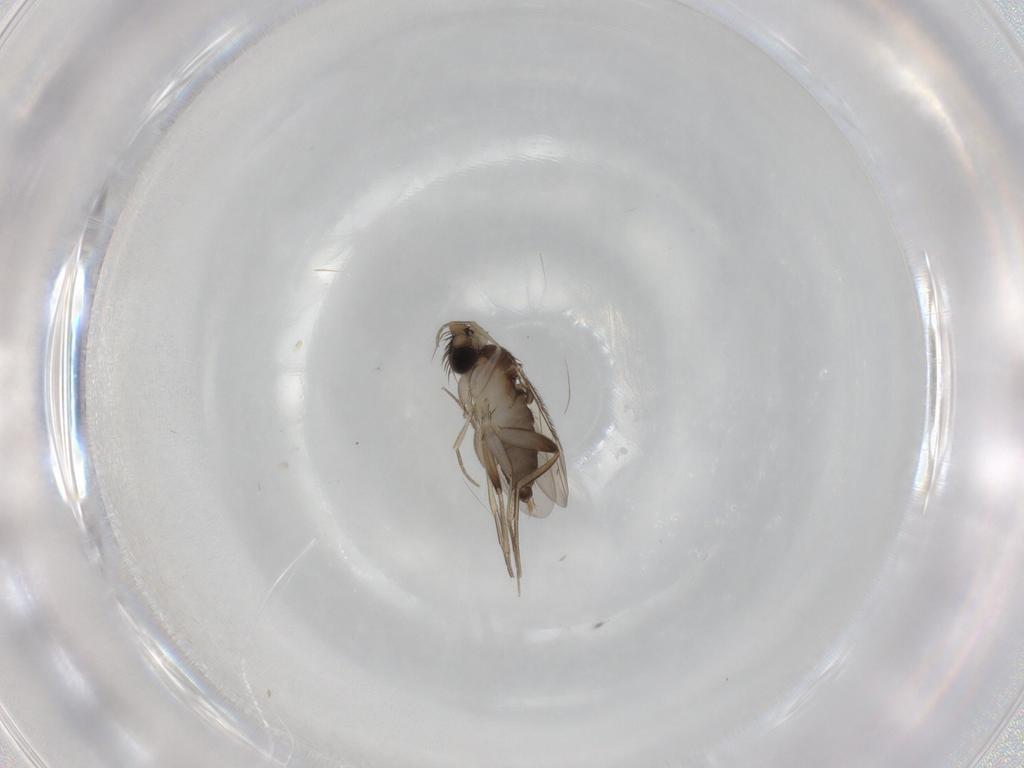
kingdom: Animalia
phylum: Arthropoda
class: Insecta
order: Diptera
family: Phoridae
